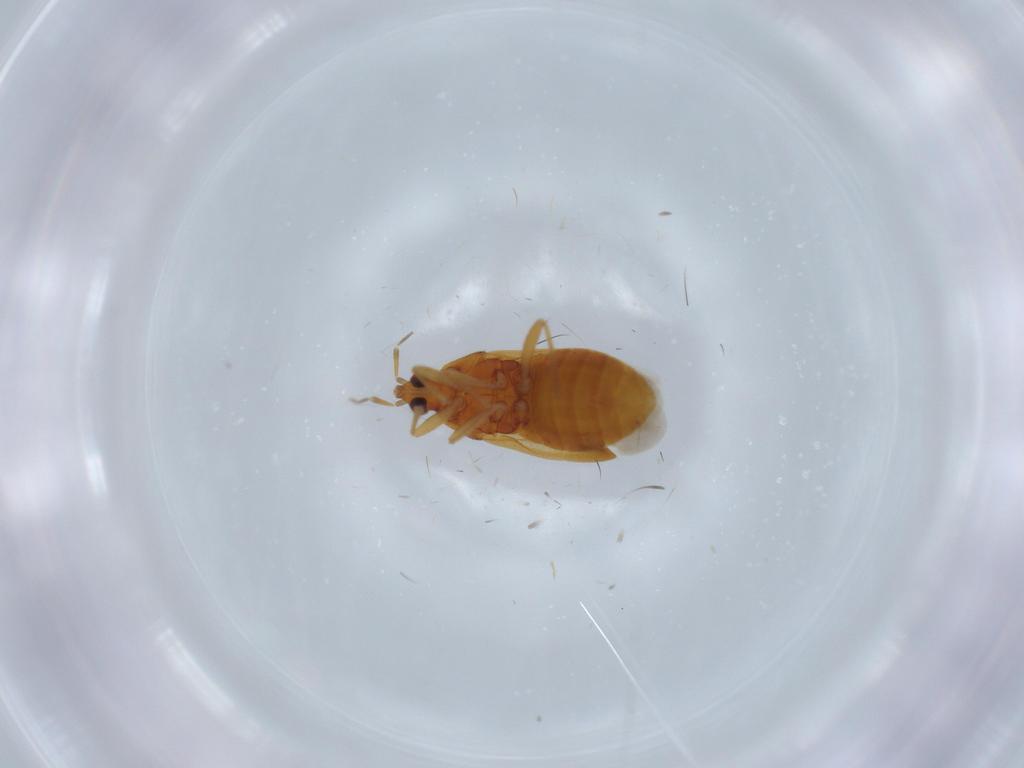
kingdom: Animalia
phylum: Arthropoda
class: Insecta
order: Hemiptera
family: Anthocoridae
